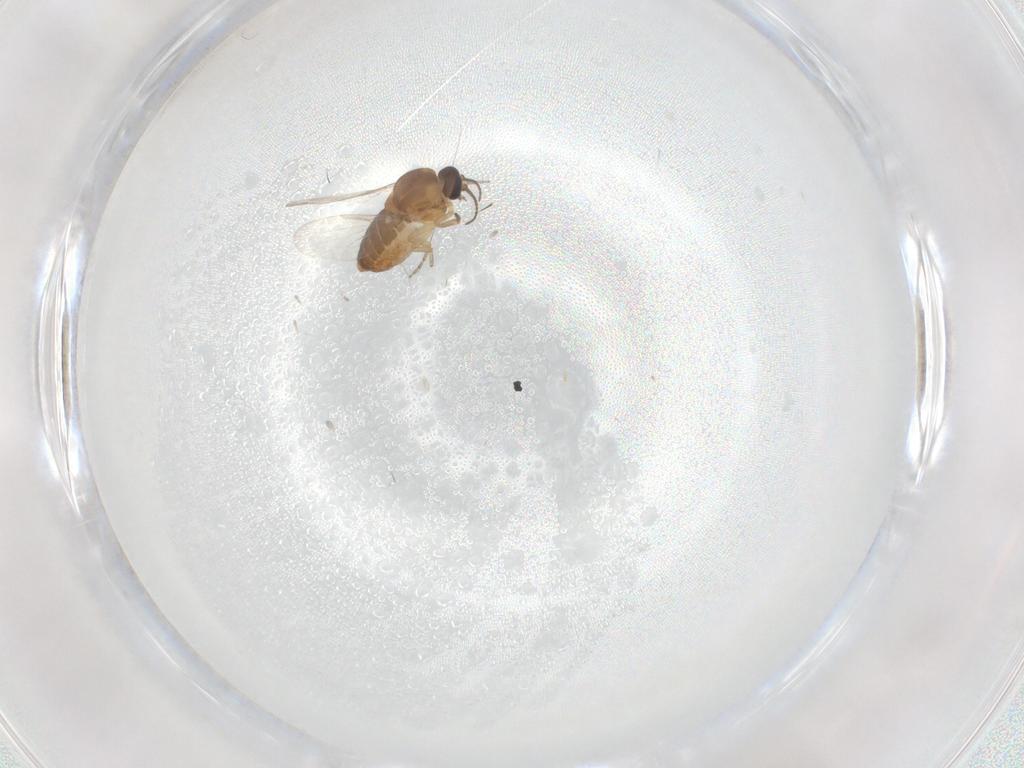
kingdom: Animalia
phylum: Arthropoda
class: Insecta
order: Diptera
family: Ceratopogonidae
